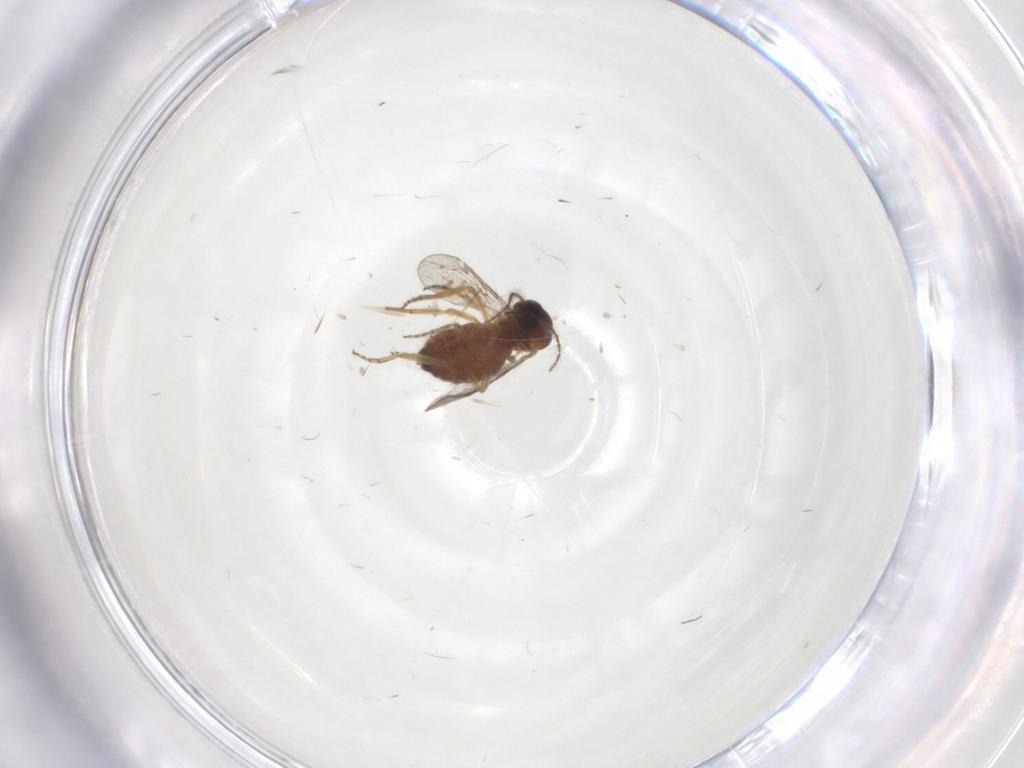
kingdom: Animalia
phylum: Arthropoda
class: Insecta
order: Diptera
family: Ceratopogonidae
